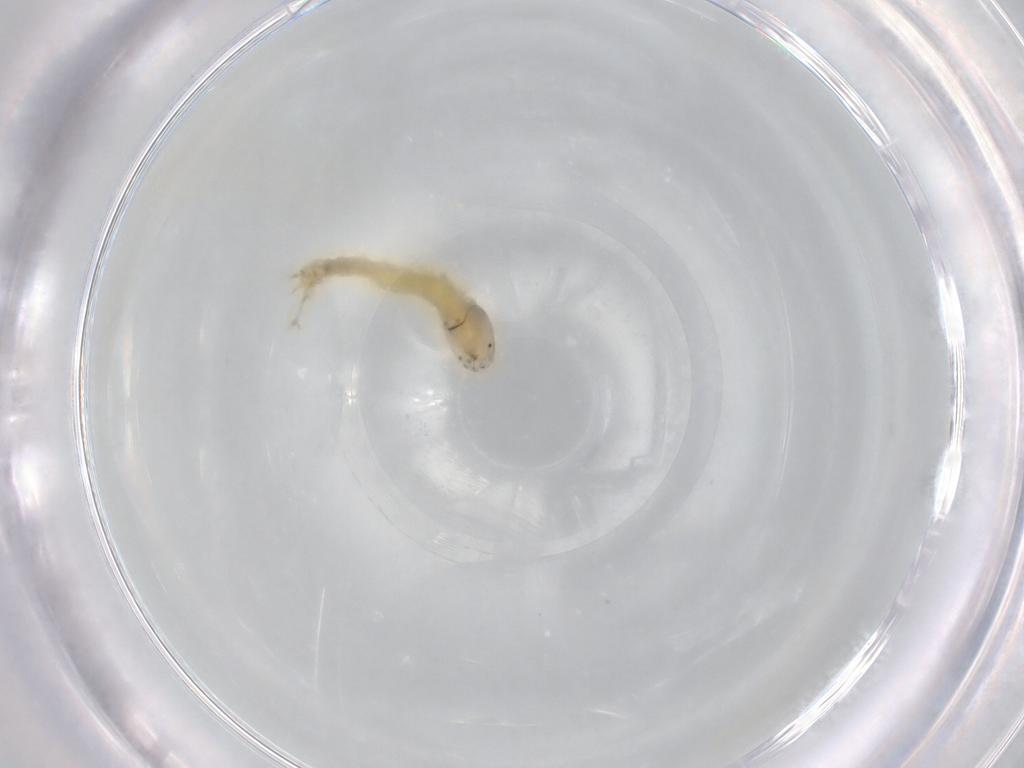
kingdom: Animalia
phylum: Arthropoda
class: Insecta
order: Diptera
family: Chironomidae
